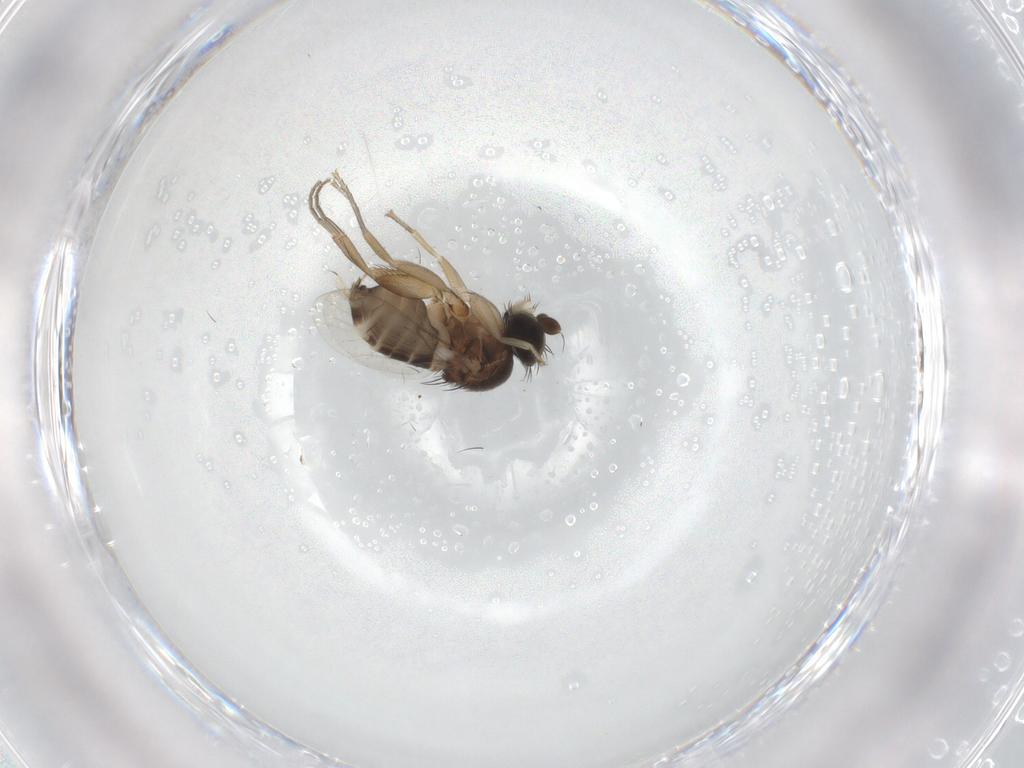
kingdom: Animalia
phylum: Arthropoda
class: Insecta
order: Diptera
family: Phoridae
